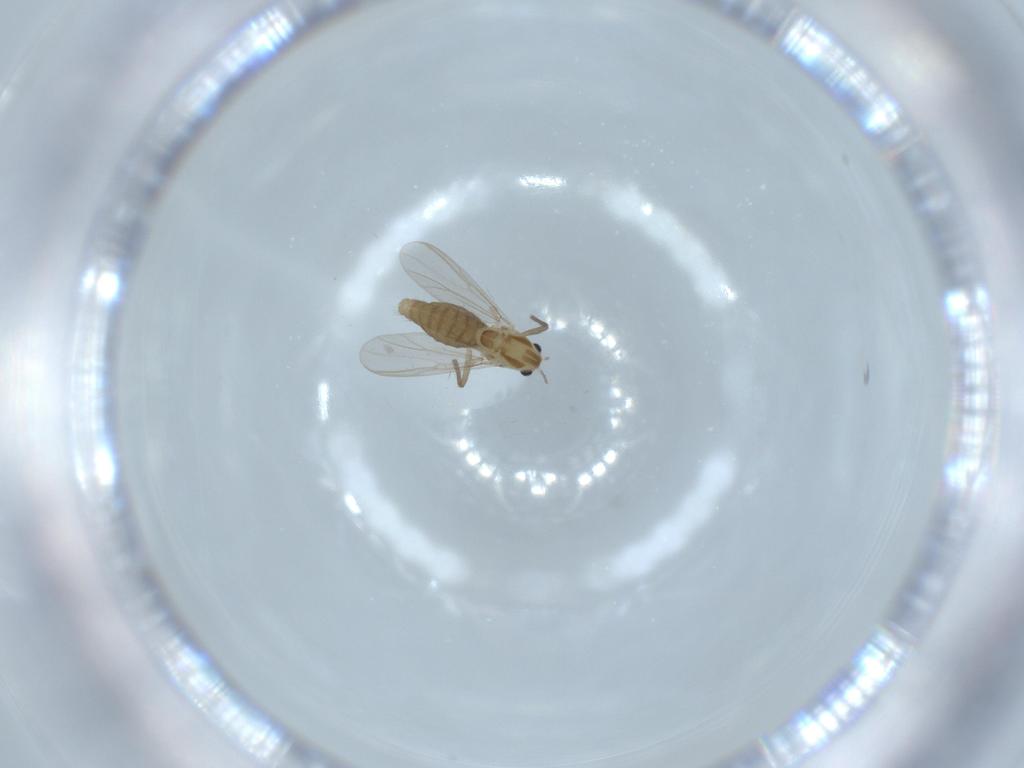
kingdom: Animalia
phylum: Arthropoda
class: Insecta
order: Diptera
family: Chironomidae
